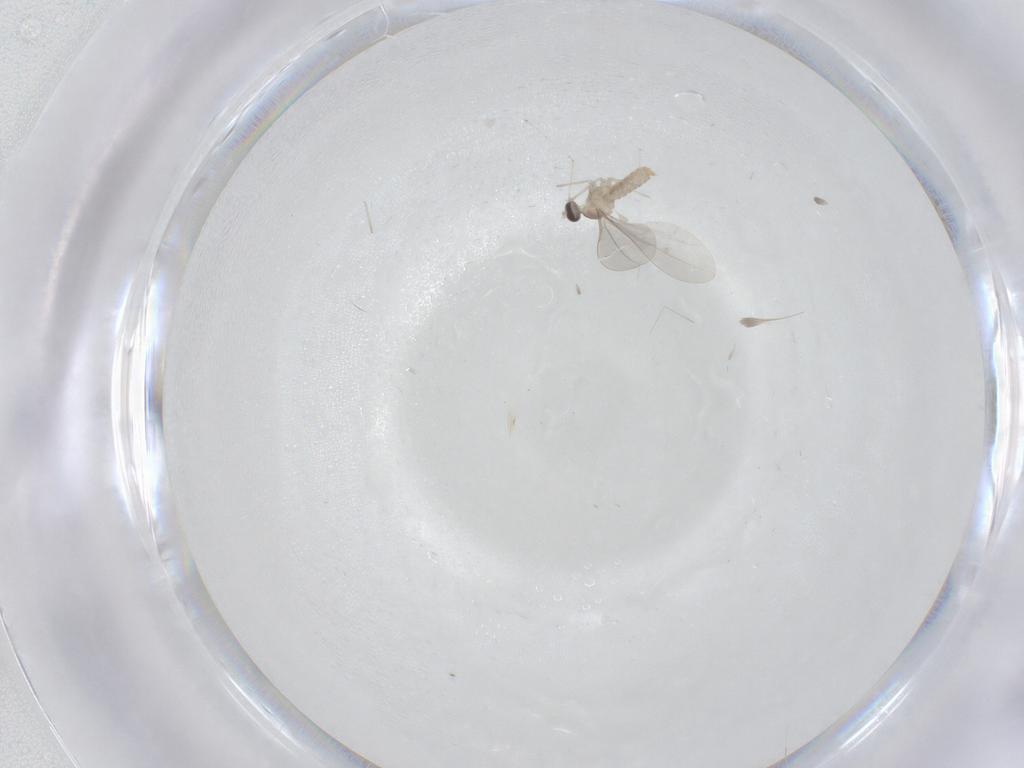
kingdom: Animalia
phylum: Arthropoda
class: Insecta
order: Diptera
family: Cecidomyiidae
